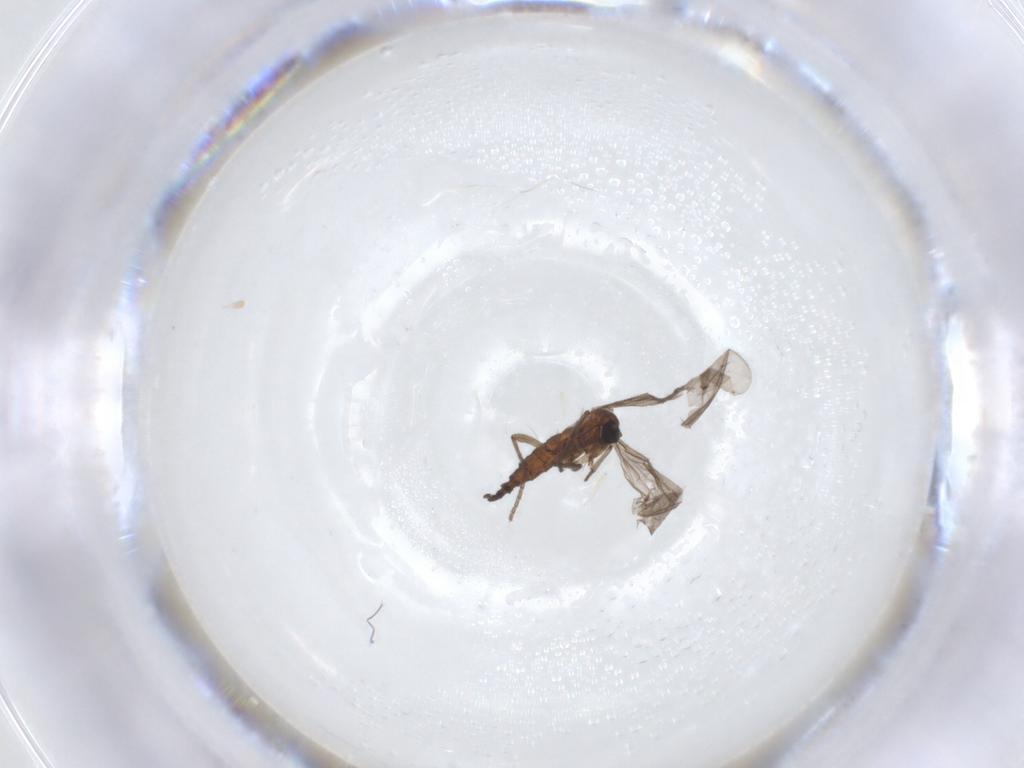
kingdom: Animalia
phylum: Arthropoda
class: Insecta
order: Diptera
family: Sciaridae
